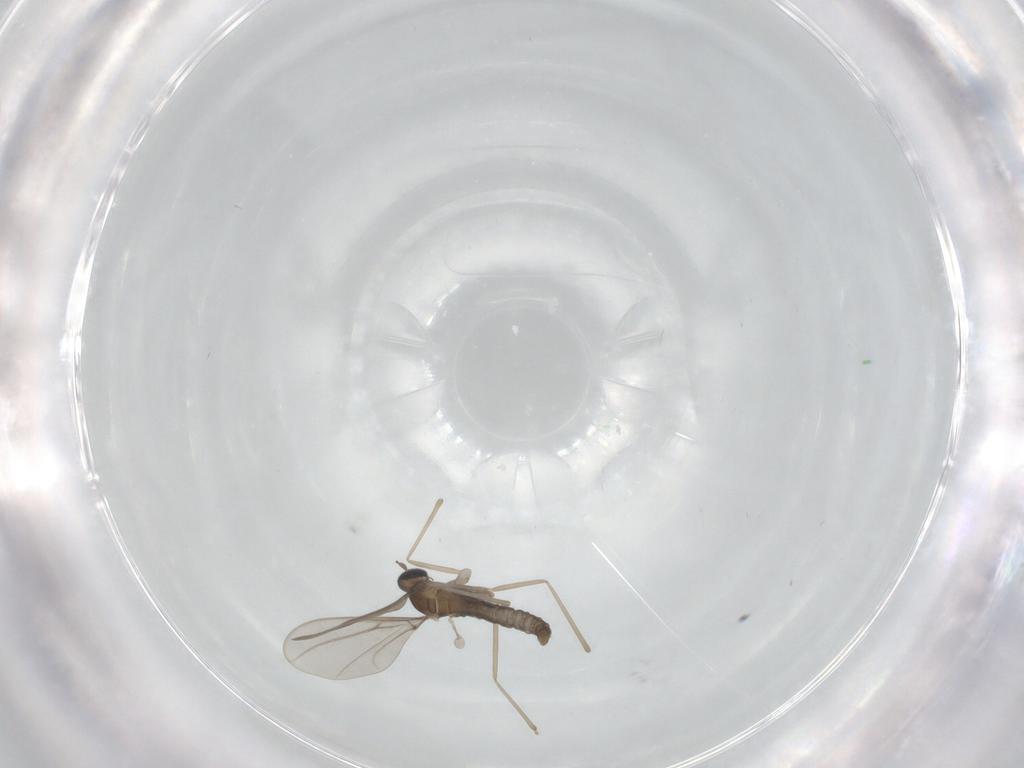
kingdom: Animalia
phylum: Arthropoda
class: Insecta
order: Diptera
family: Cecidomyiidae
